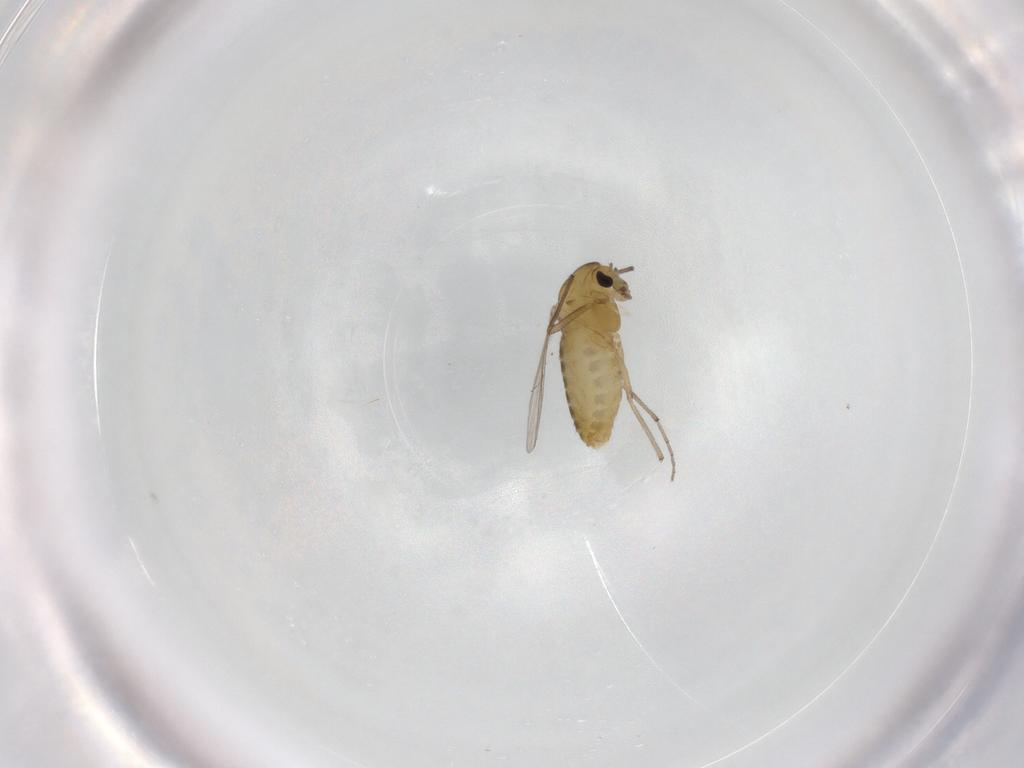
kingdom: Animalia
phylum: Arthropoda
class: Insecta
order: Diptera
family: Chironomidae
